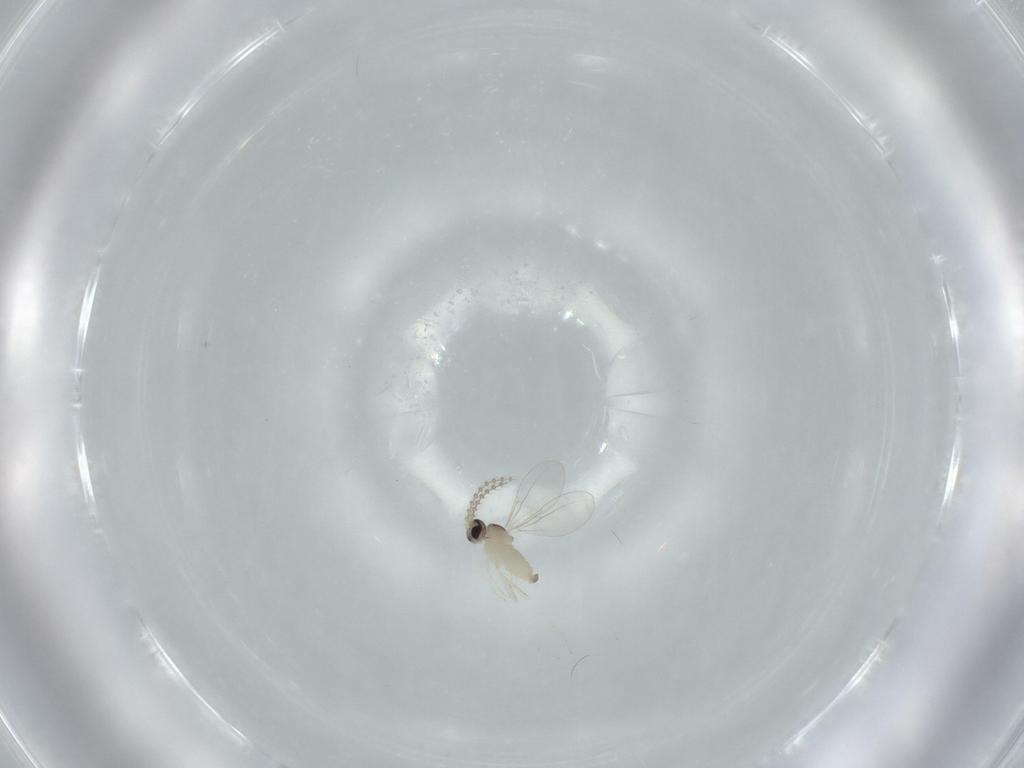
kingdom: Animalia
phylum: Arthropoda
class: Insecta
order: Diptera
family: Cecidomyiidae
